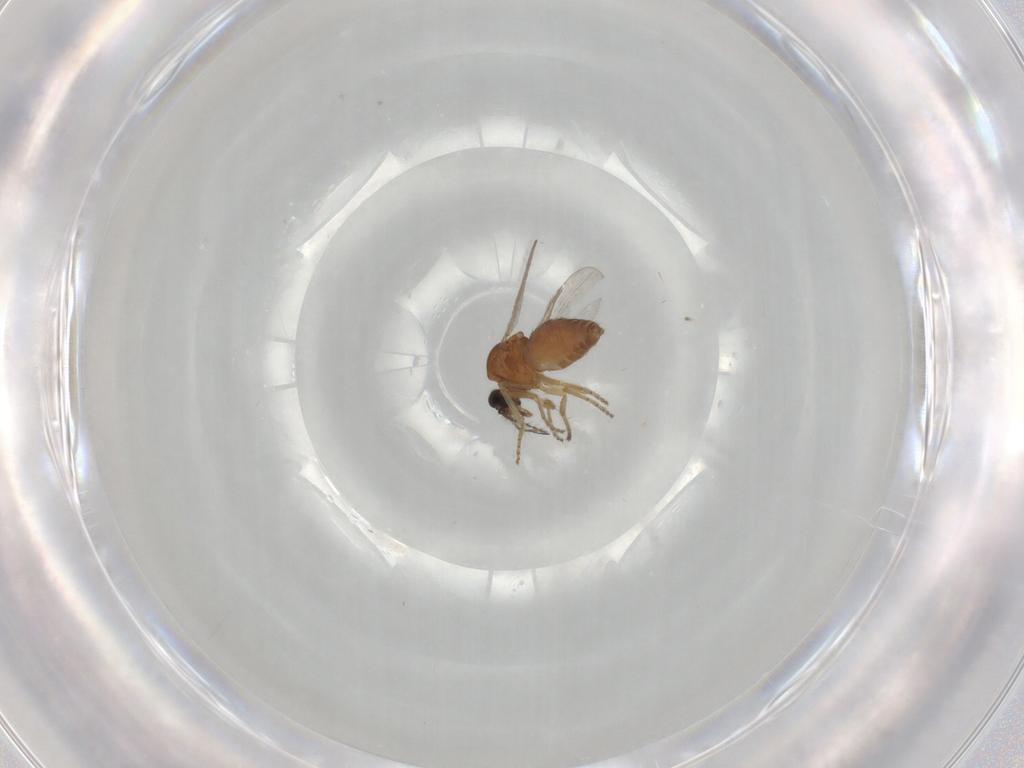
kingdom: Animalia
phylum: Arthropoda
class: Insecta
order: Diptera
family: Ceratopogonidae
